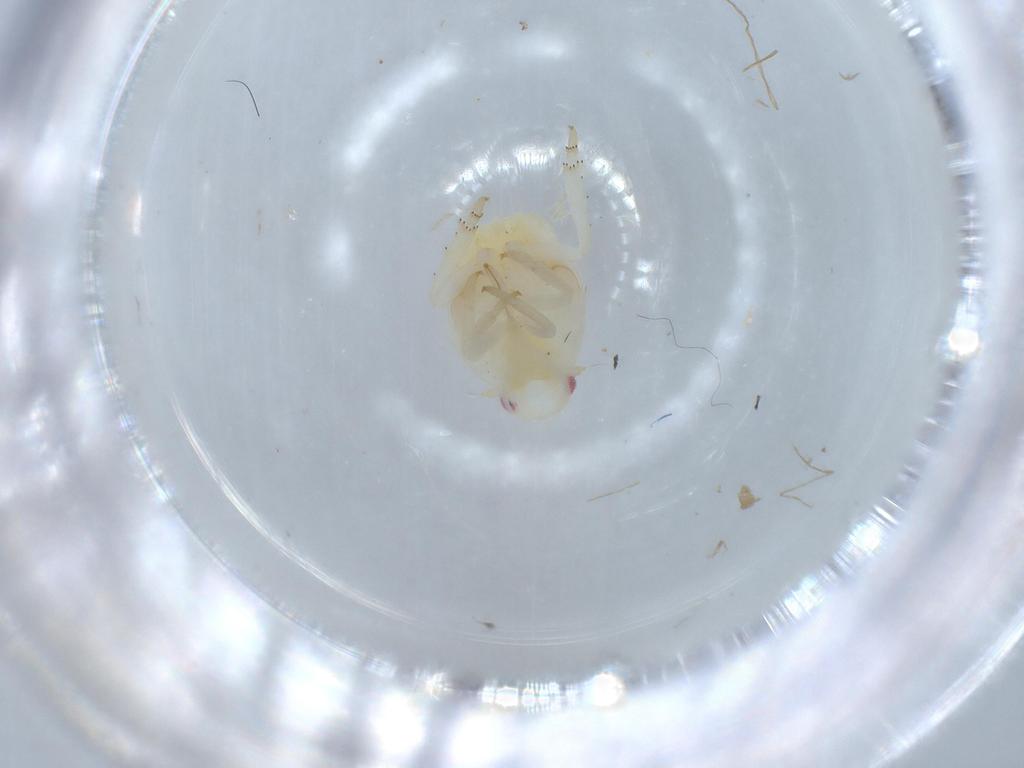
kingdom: Animalia
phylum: Arthropoda
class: Insecta
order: Hemiptera
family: Flatidae
